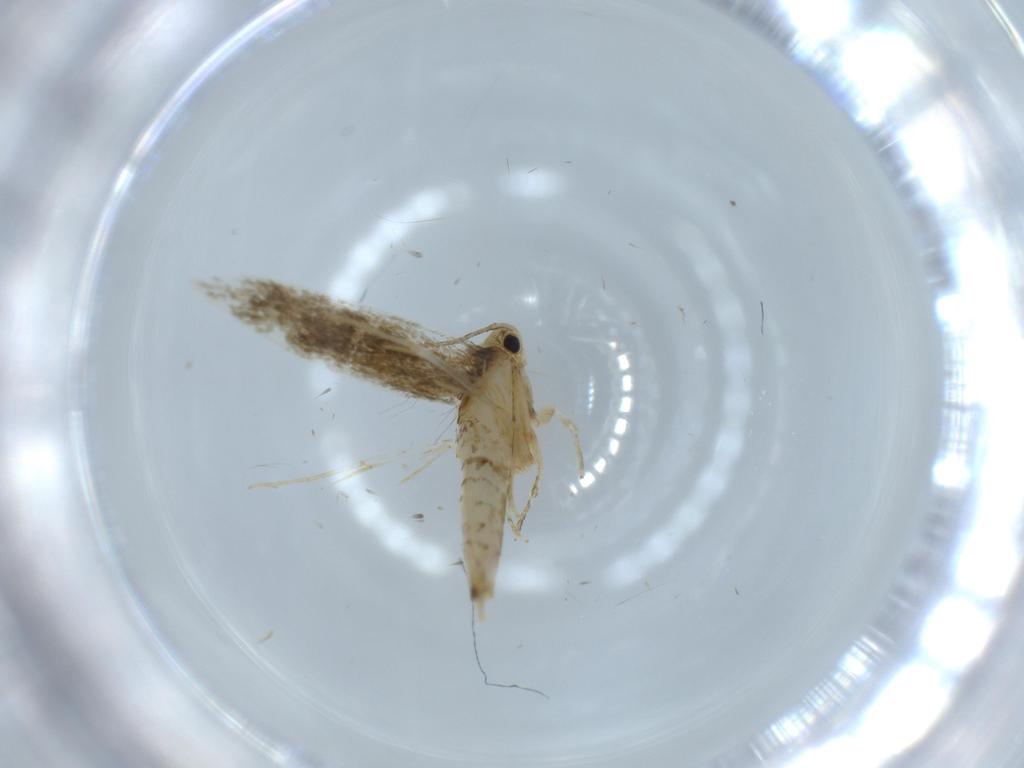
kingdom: Animalia
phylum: Arthropoda
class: Insecta
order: Lepidoptera
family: Tineidae
